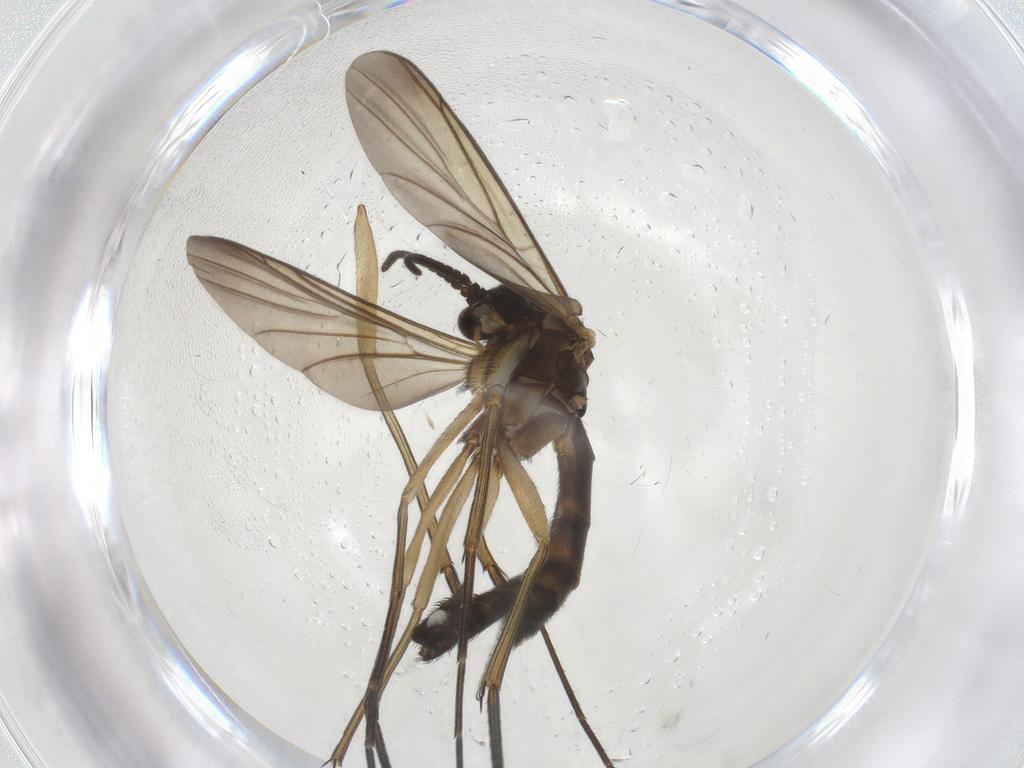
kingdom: Animalia
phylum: Arthropoda
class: Insecta
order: Diptera
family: Keroplatidae
